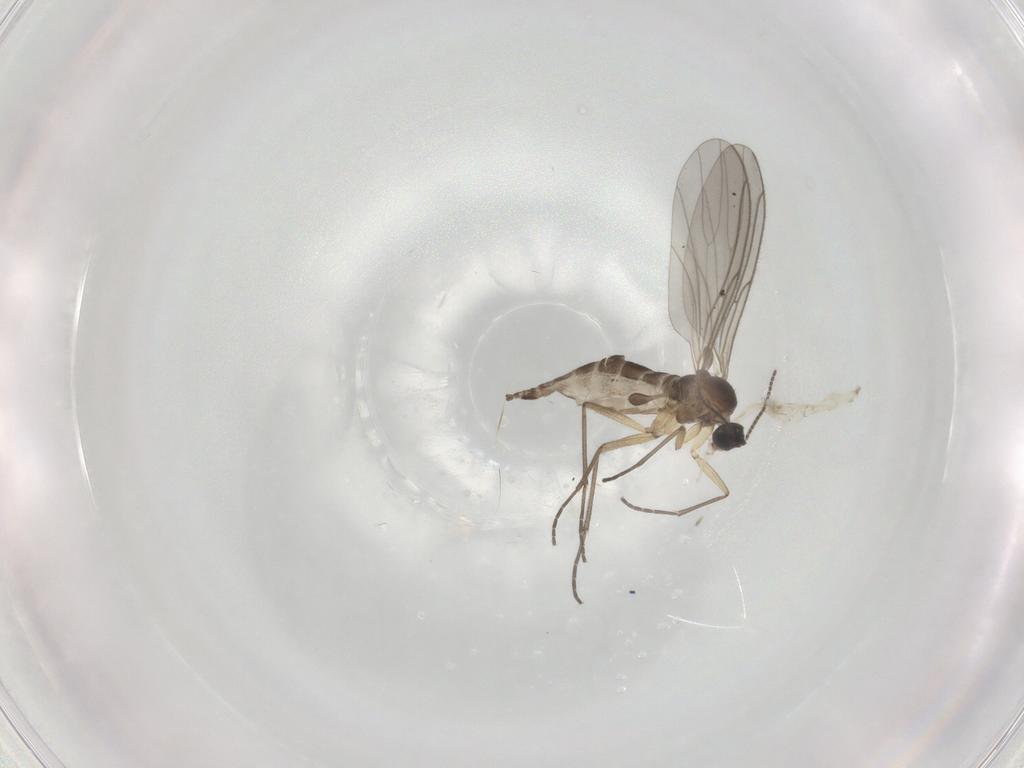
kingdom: Animalia
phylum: Arthropoda
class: Insecta
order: Diptera
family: Sciaridae
